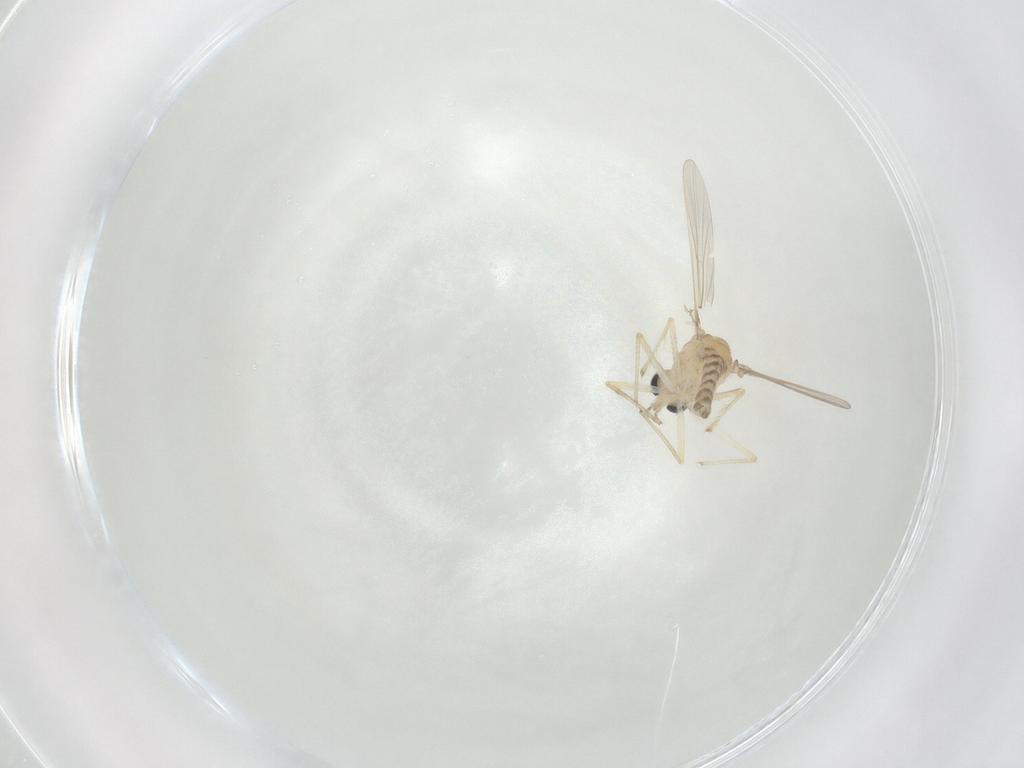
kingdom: Animalia
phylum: Arthropoda
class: Insecta
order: Diptera
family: Chironomidae
